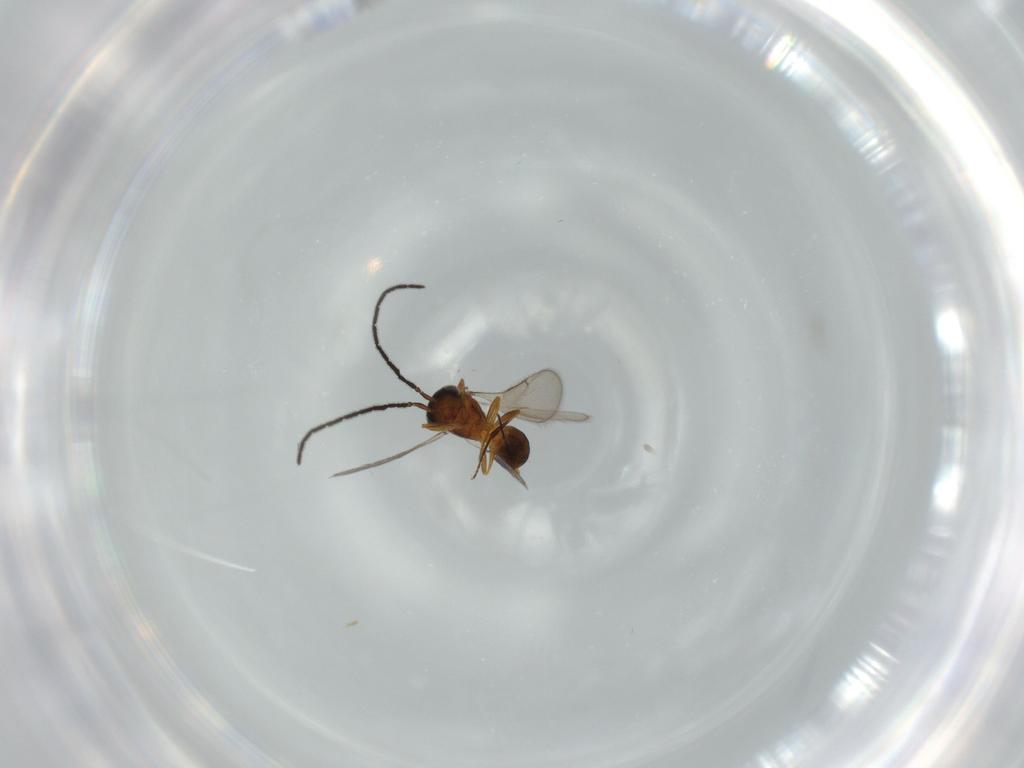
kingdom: Animalia
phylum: Arthropoda
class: Insecta
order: Hymenoptera
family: Scelionidae
